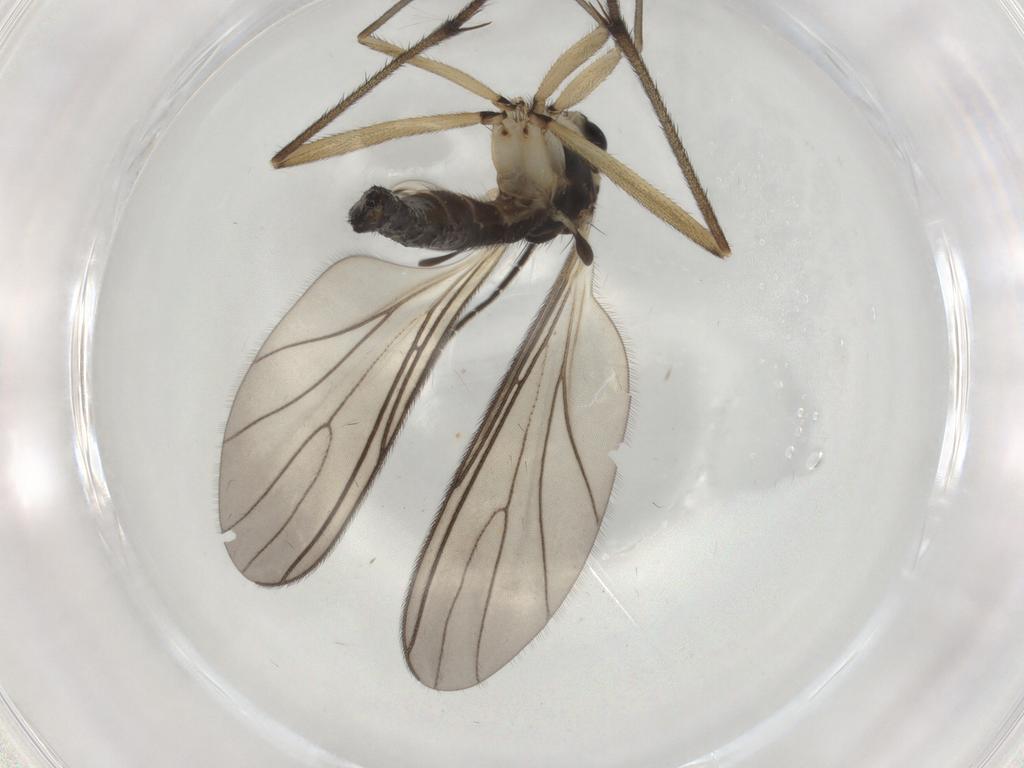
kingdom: Animalia
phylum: Arthropoda
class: Insecta
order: Diptera
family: Sciaridae
